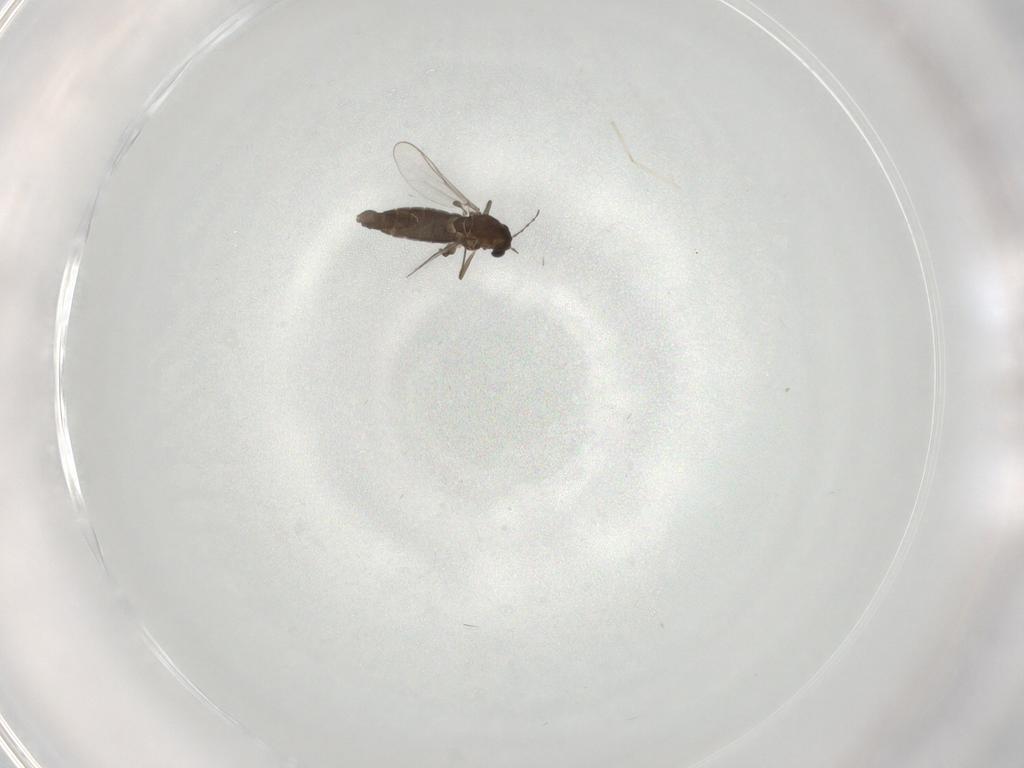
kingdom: Animalia
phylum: Arthropoda
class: Insecta
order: Diptera
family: Chironomidae
